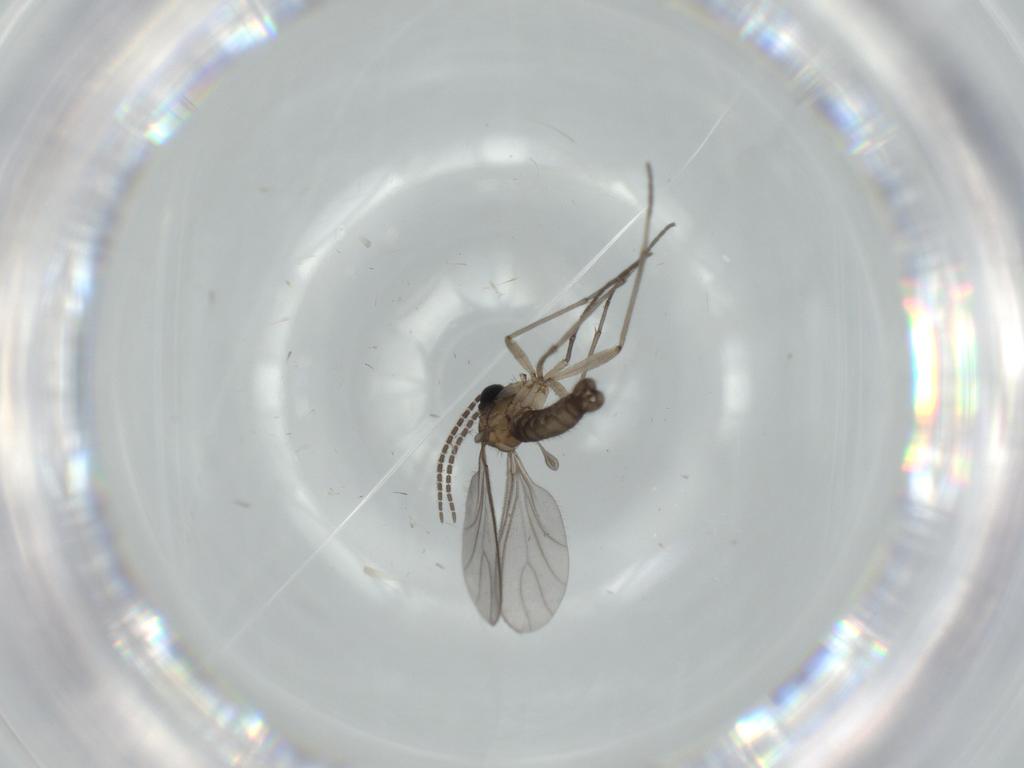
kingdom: Animalia
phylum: Arthropoda
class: Insecta
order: Diptera
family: Sciaridae
